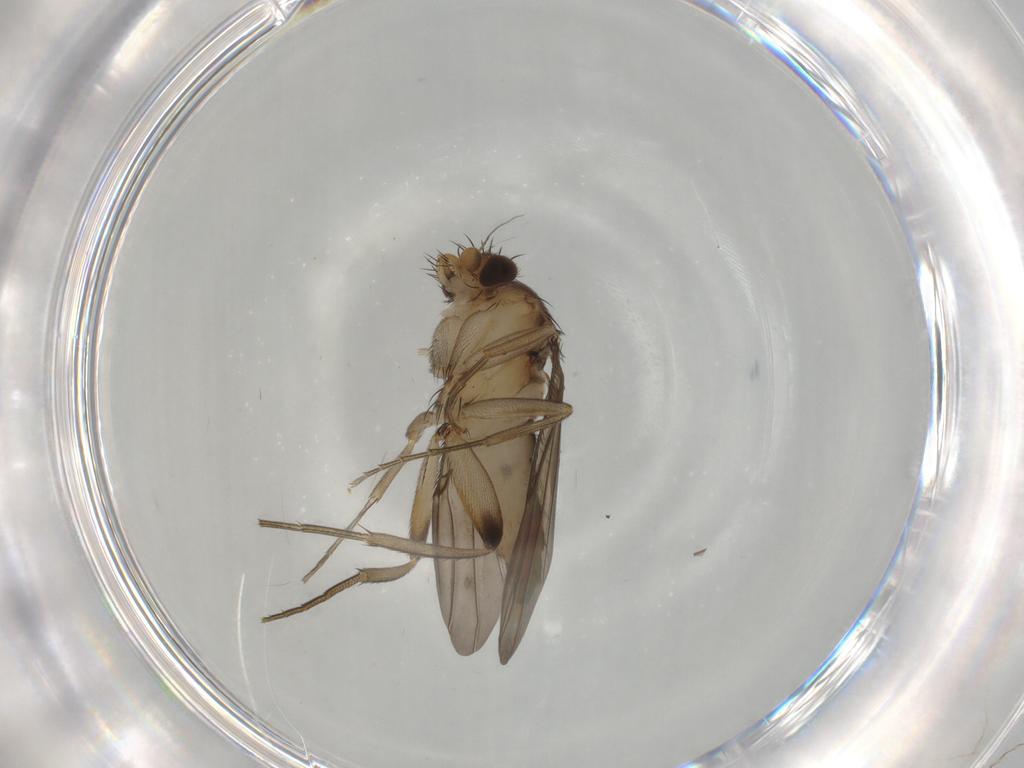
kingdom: Animalia
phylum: Arthropoda
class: Insecta
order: Diptera
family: Phoridae
